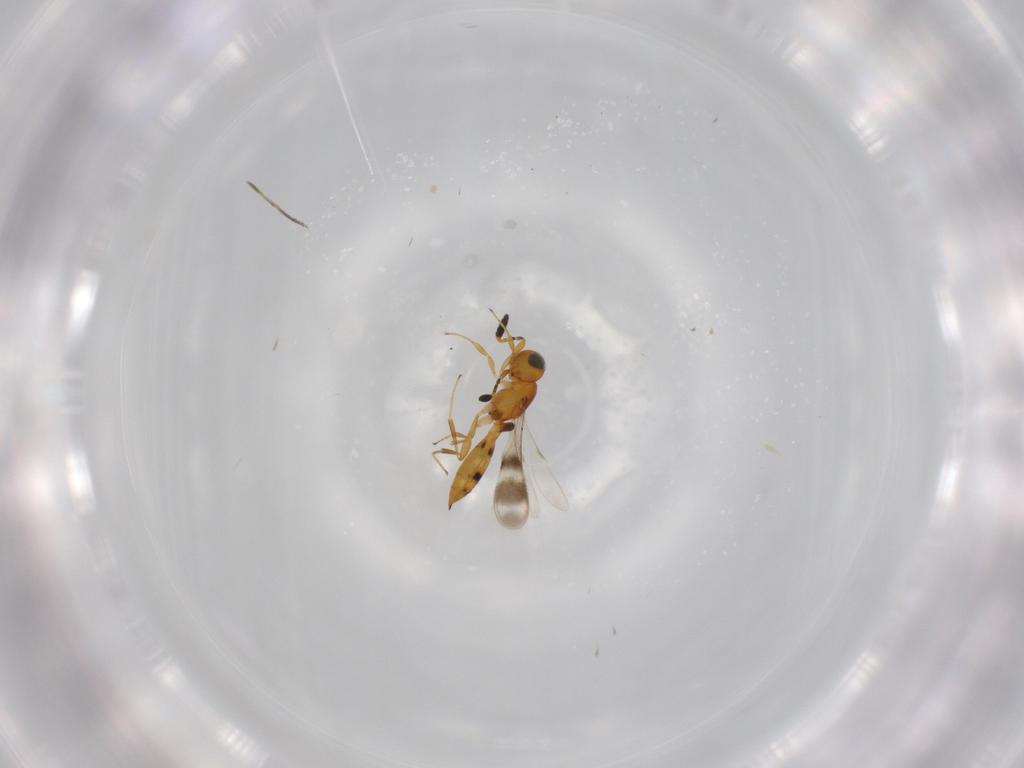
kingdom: Animalia
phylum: Arthropoda
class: Insecta
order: Hymenoptera
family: Scelionidae
